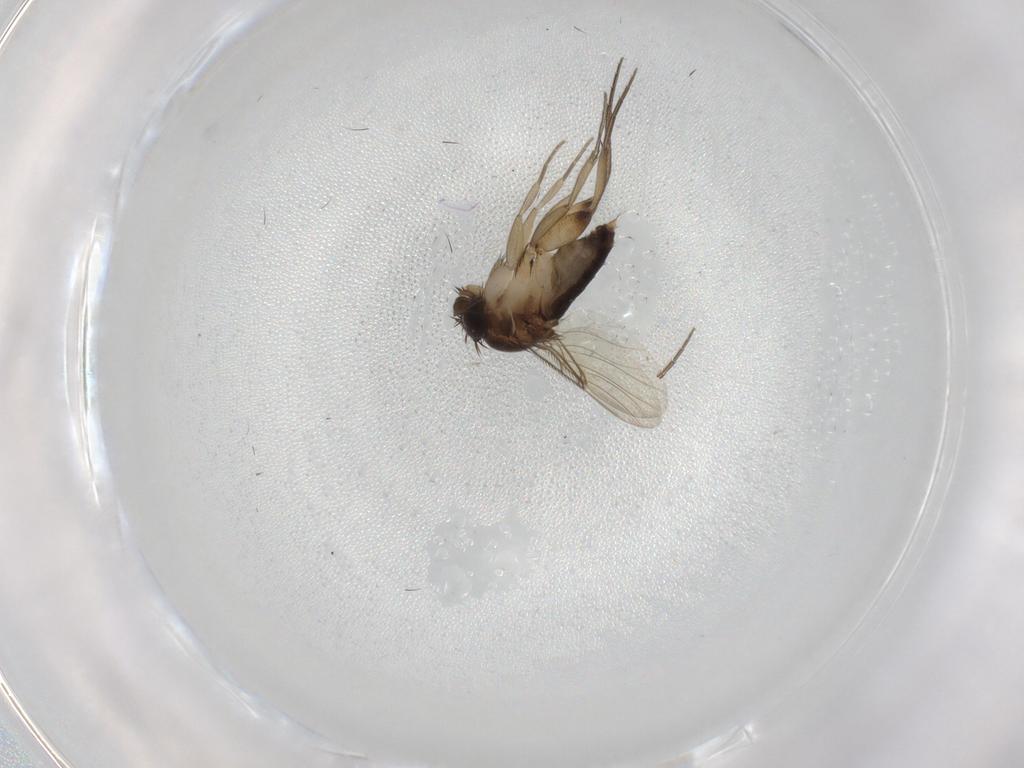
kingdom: Animalia
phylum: Arthropoda
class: Insecta
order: Diptera
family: Phoridae
